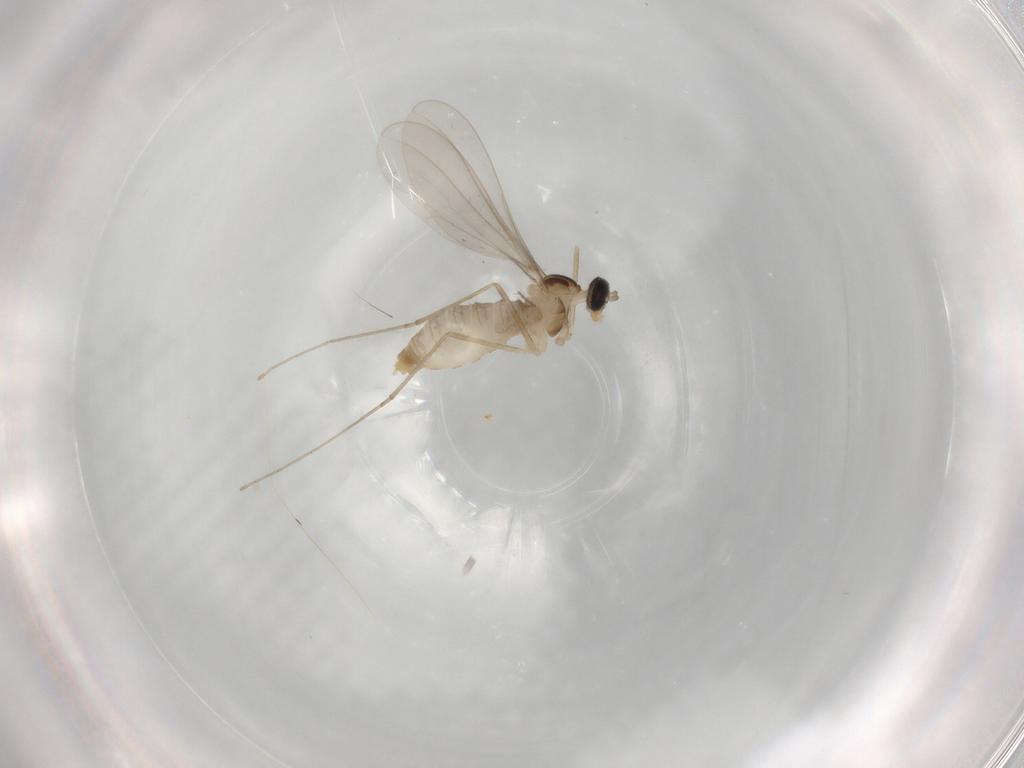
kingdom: Animalia
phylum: Arthropoda
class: Insecta
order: Diptera
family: Cecidomyiidae
